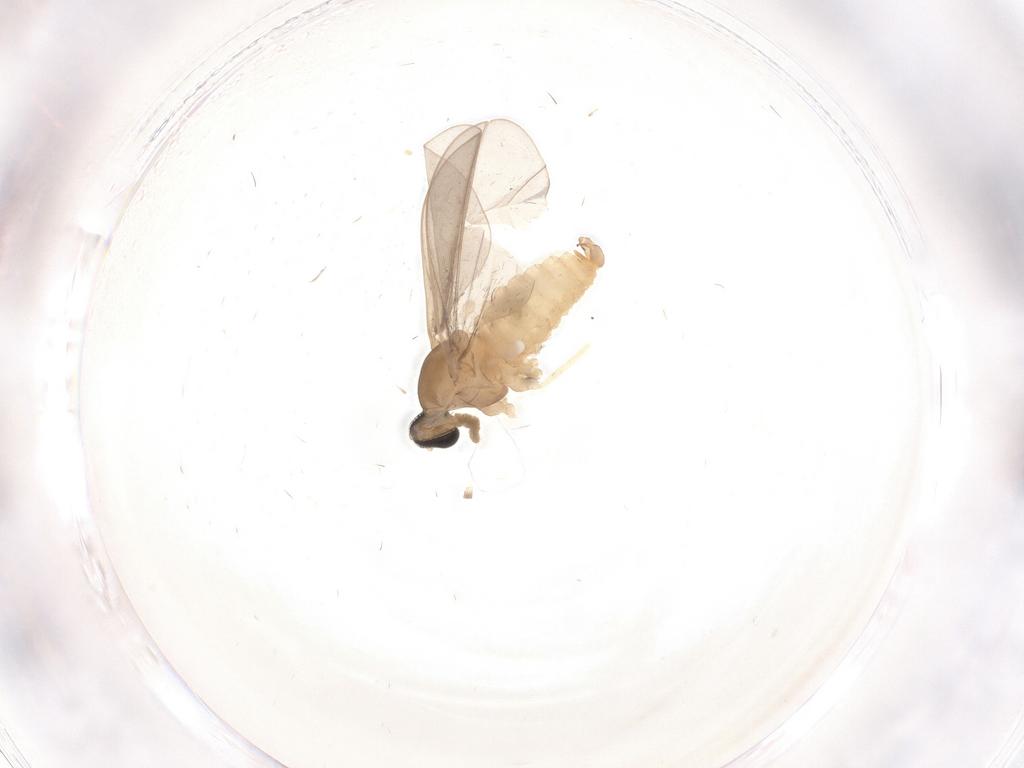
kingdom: Animalia
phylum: Arthropoda
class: Insecta
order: Diptera
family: Cecidomyiidae
